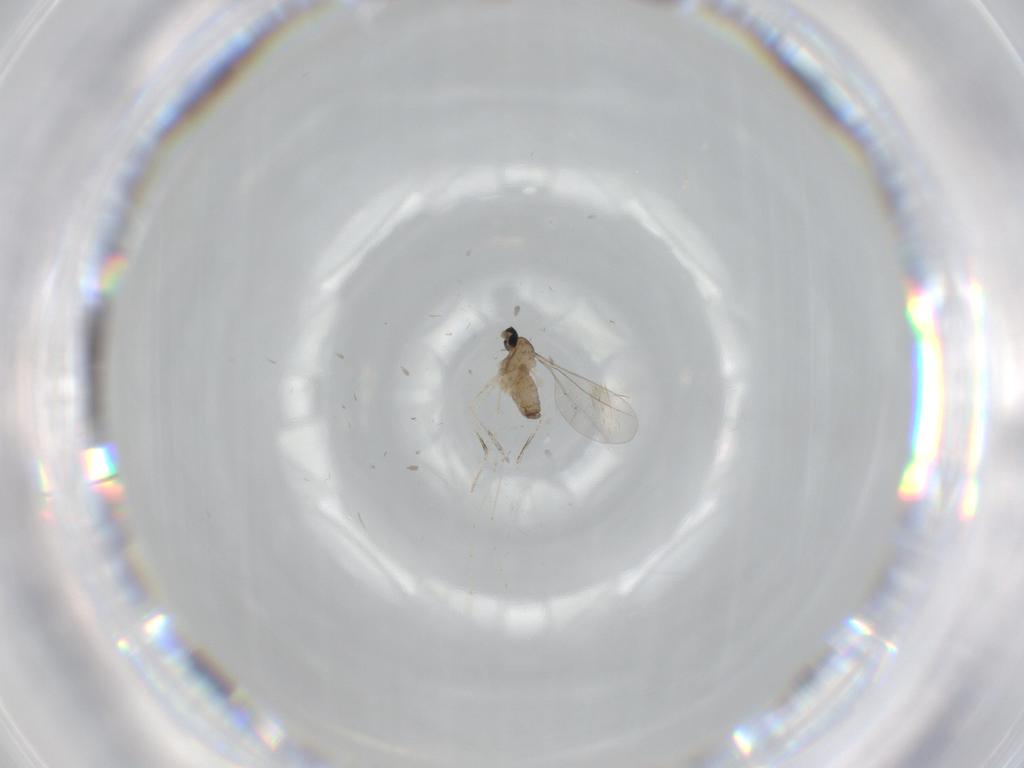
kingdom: Animalia
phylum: Arthropoda
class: Insecta
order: Diptera
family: Cecidomyiidae
